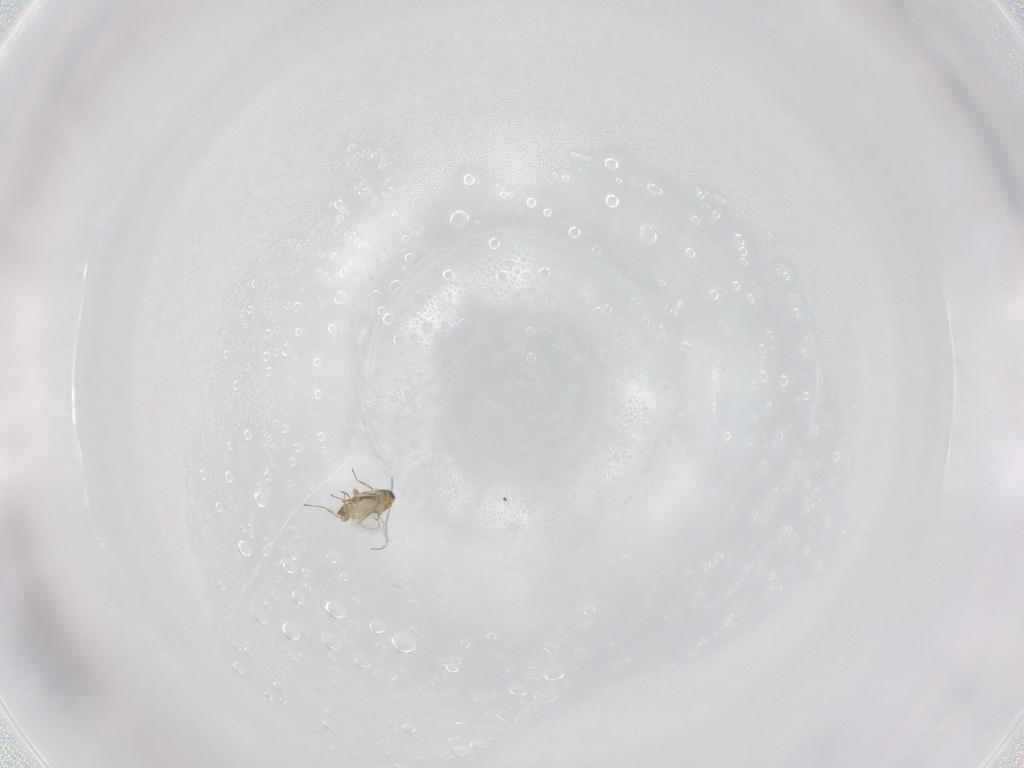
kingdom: Animalia
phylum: Arthropoda
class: Insecta
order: Hymenoptera
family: Trichogrammatidae
